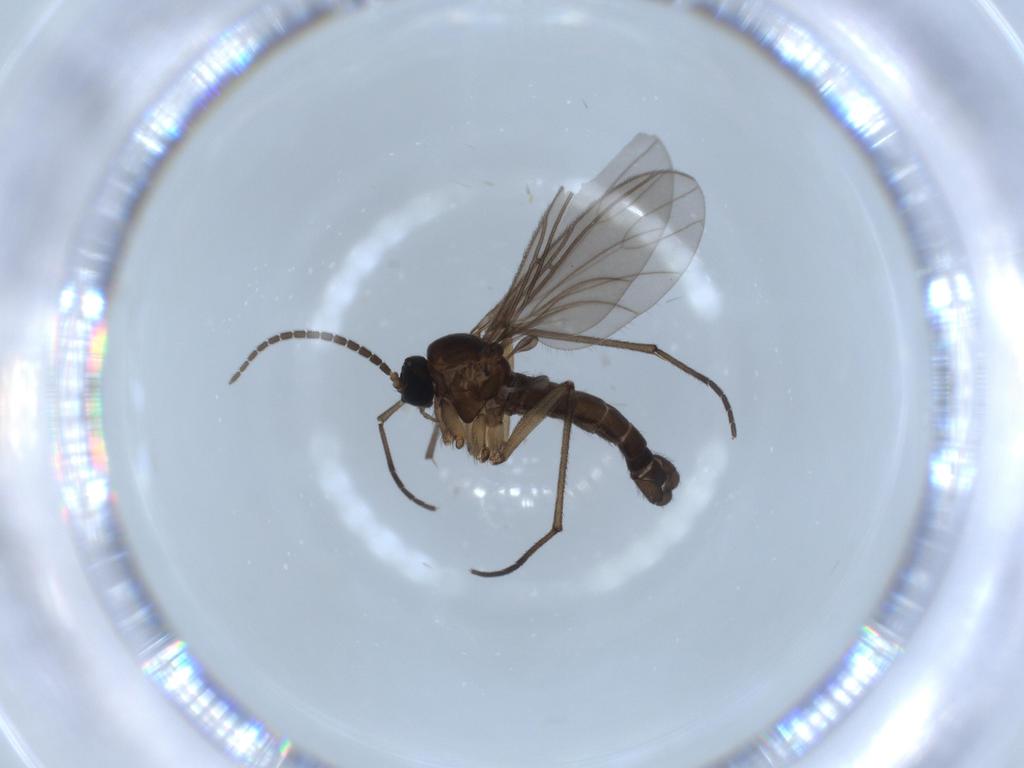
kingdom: Animalia
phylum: Arthropoda
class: Insecta
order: Diptera
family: Sciaridae
